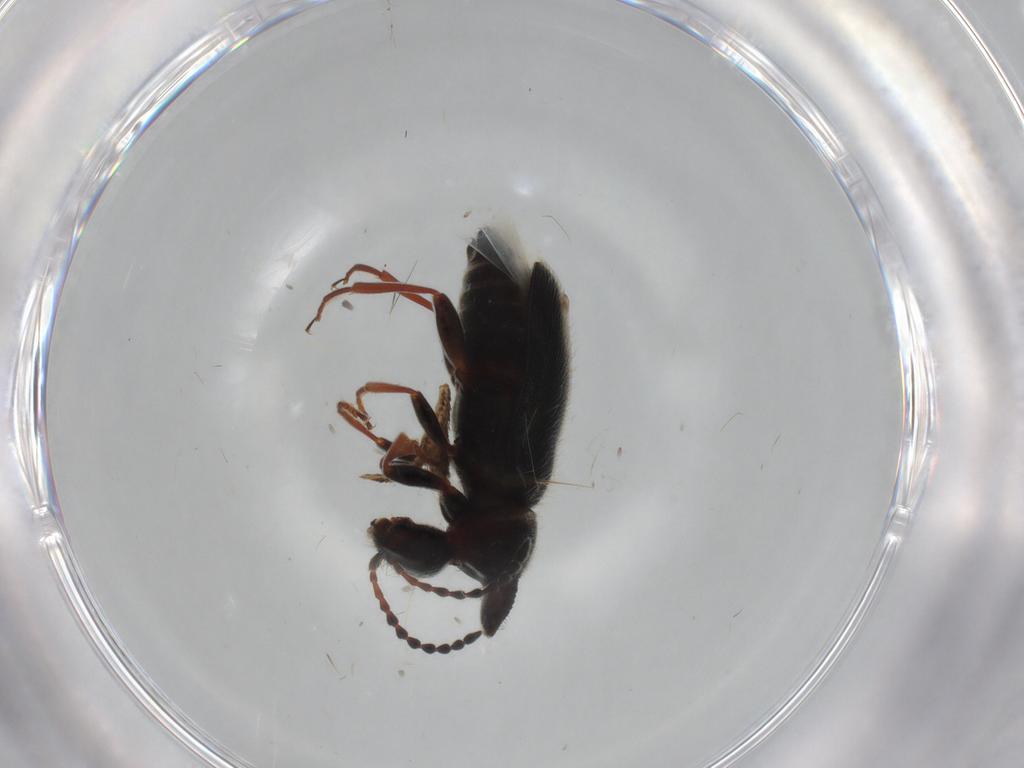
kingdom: Animalia
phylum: Arthropoda
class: Insecta
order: Coleoptera
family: Anthicidae
